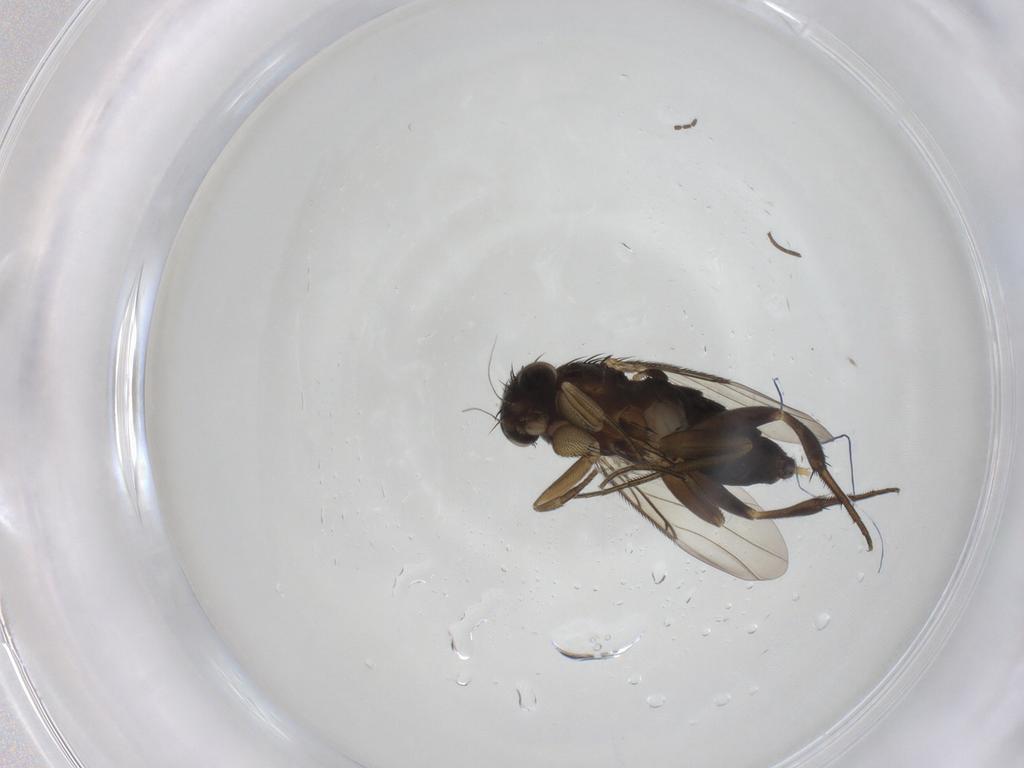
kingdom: Animalia
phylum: Arthropoda
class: Insecta
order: Diptera
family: Phoridae
